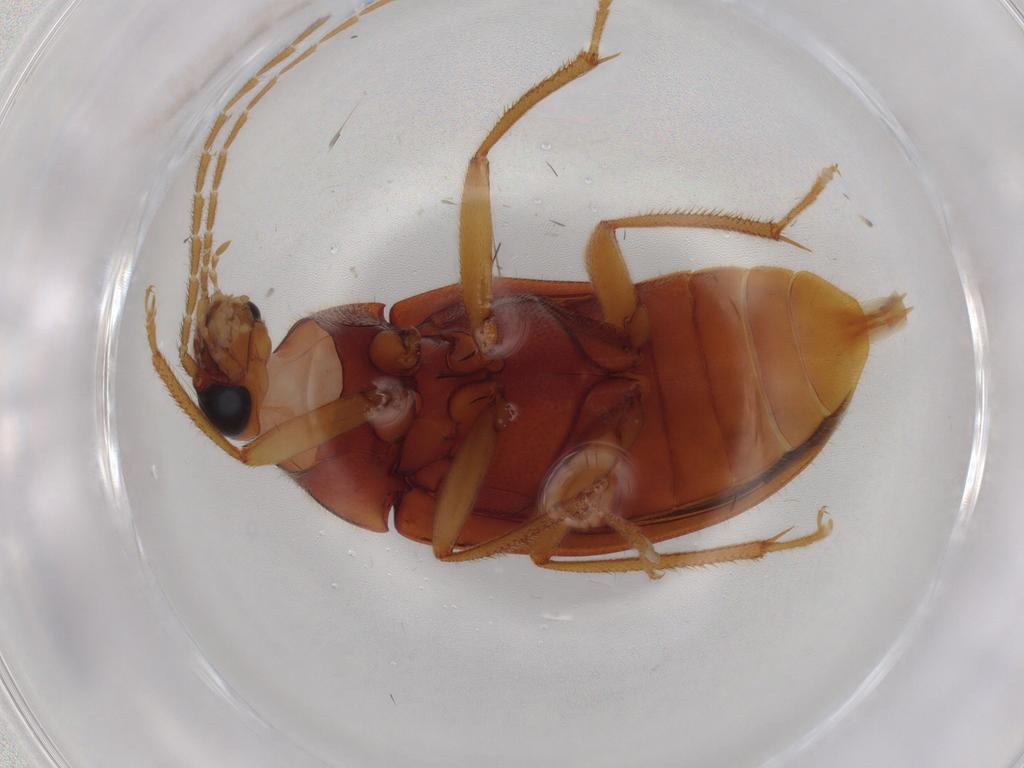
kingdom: Animalia
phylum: Arthropoda
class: Insecta
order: Coleoptera
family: Ptilodactylidae
